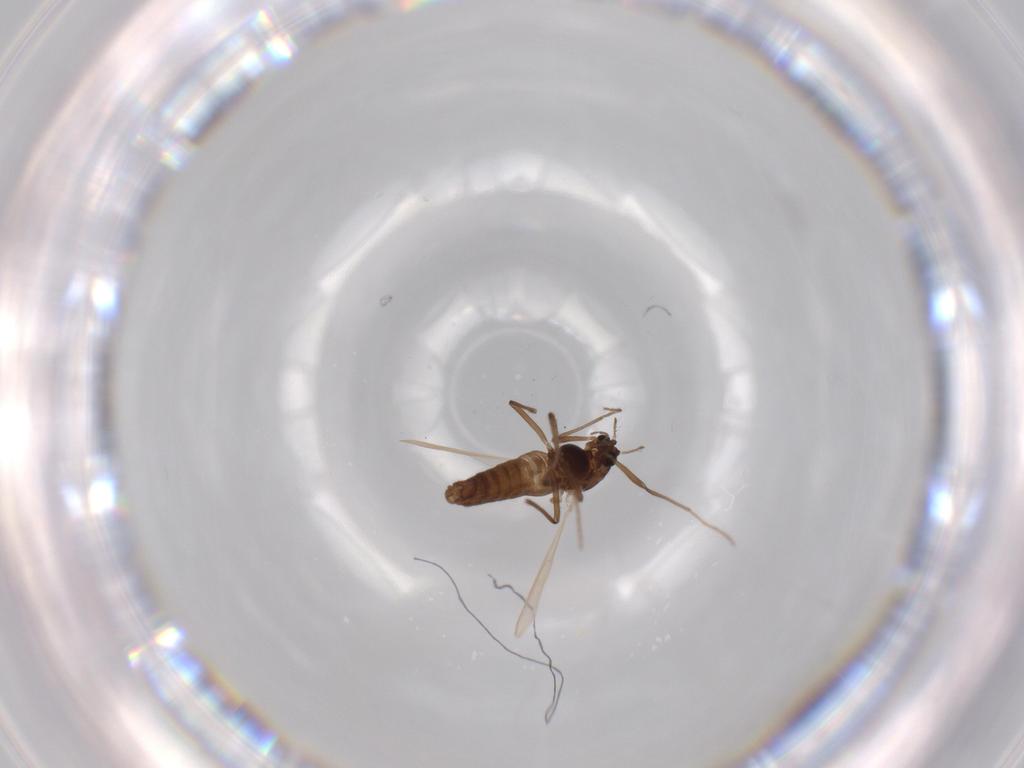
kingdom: Animalia
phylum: Arthropoda
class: Insecta
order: Diptera
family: Chironomidae
